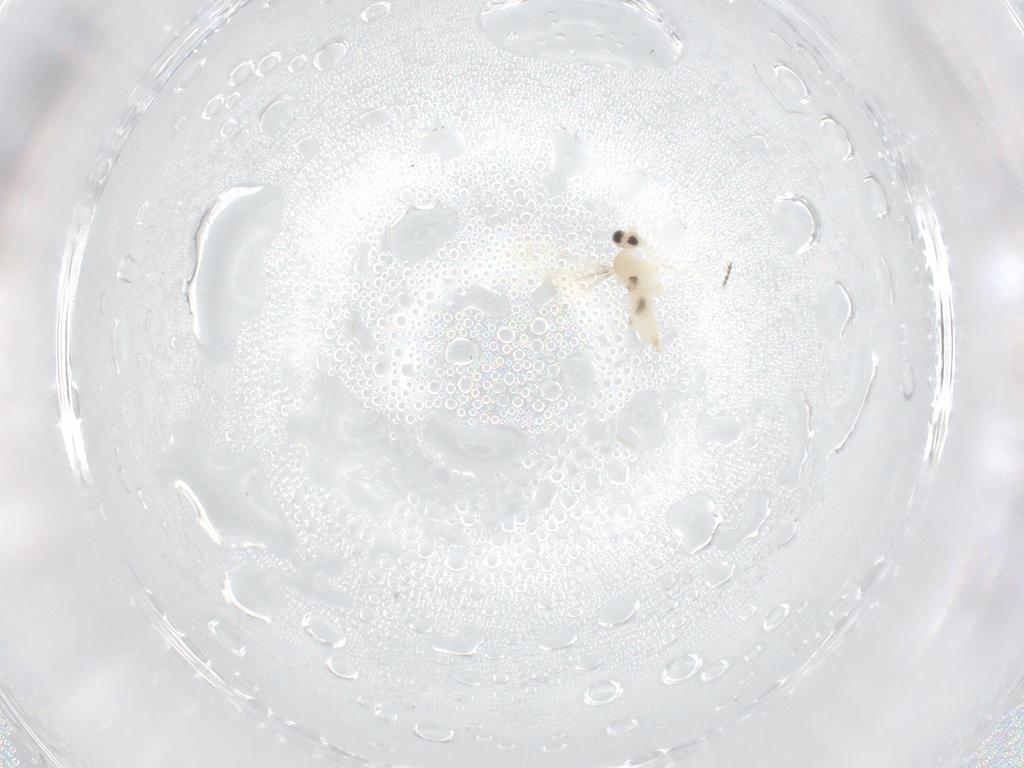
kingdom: Animalia
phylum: Arthropoda
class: Insecta
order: Diptera
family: Cecidomyiidae
